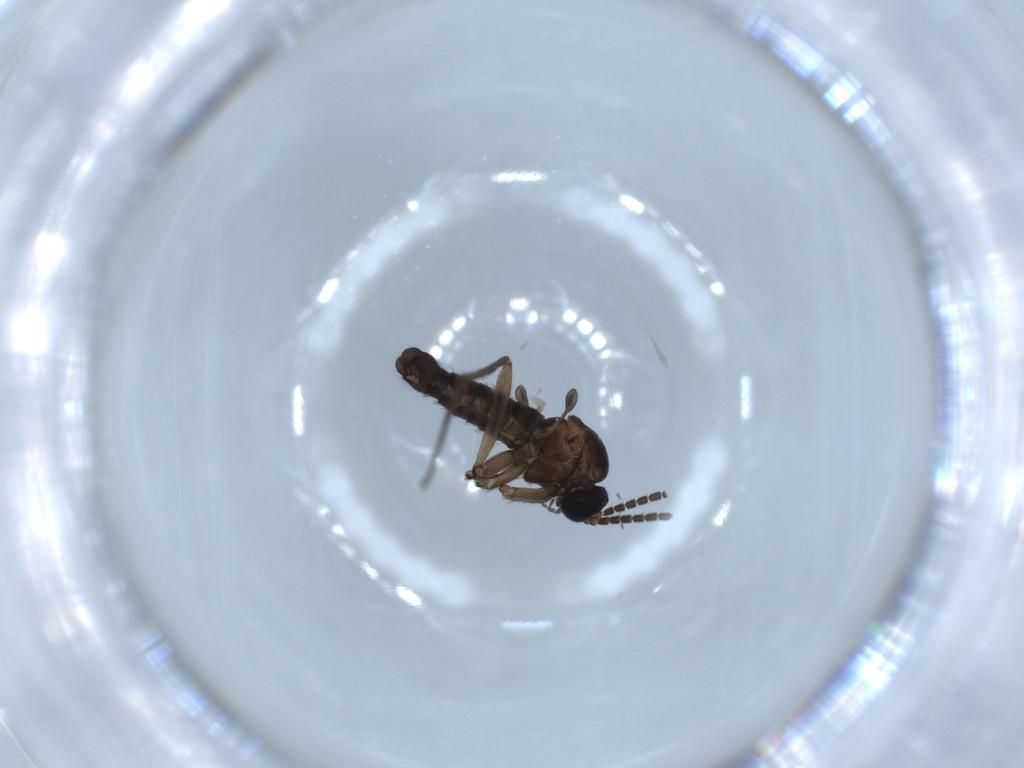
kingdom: Animalia
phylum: Arthropoda
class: Insecta
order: Diptera
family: Sciaridae
